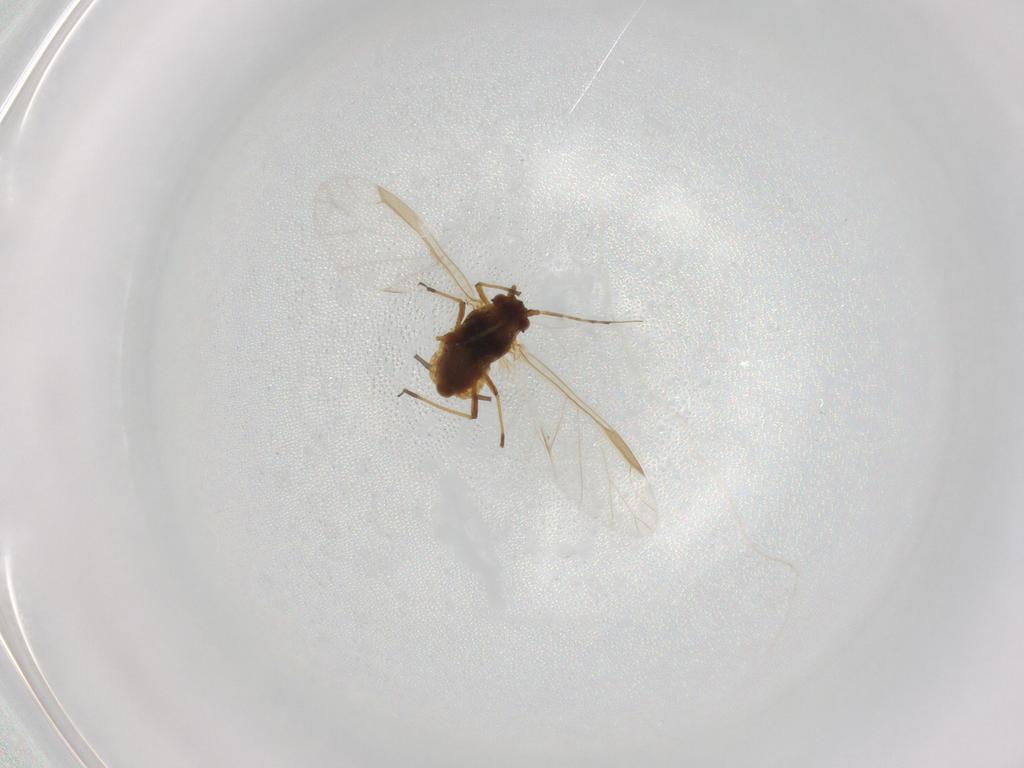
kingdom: Animalia
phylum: Arthropoda
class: Insecta
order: Hemiptera
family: Aphididae
